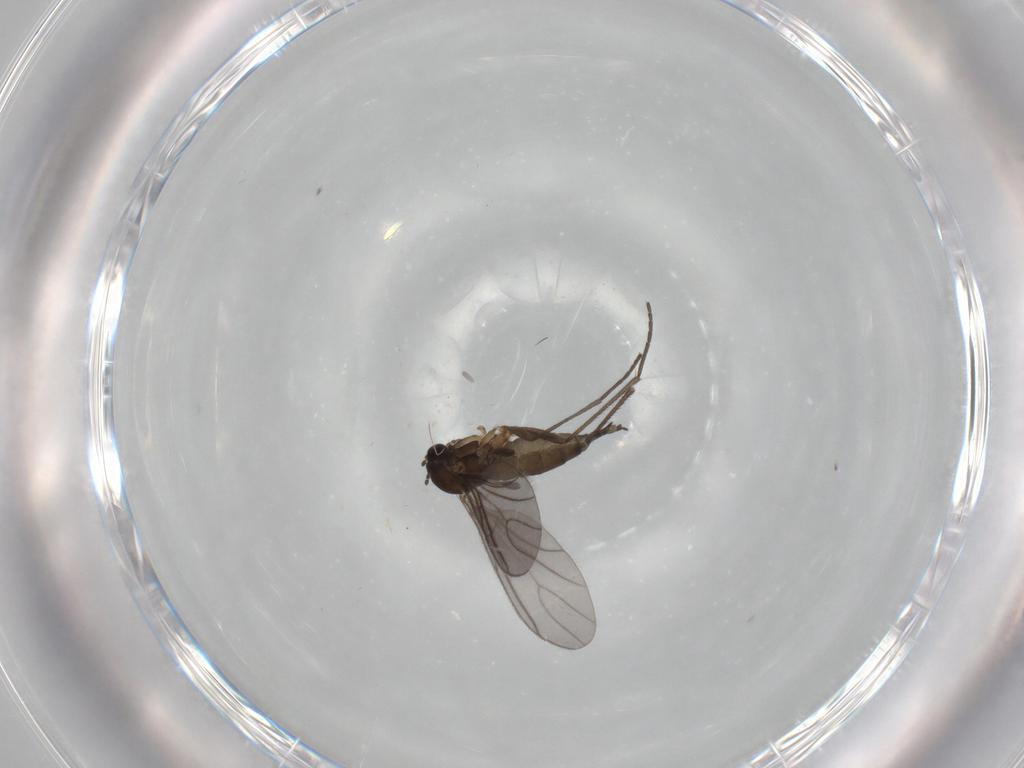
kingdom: Animalia
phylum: Arthropoda
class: Insecta
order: Diptera
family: Sciaridae
